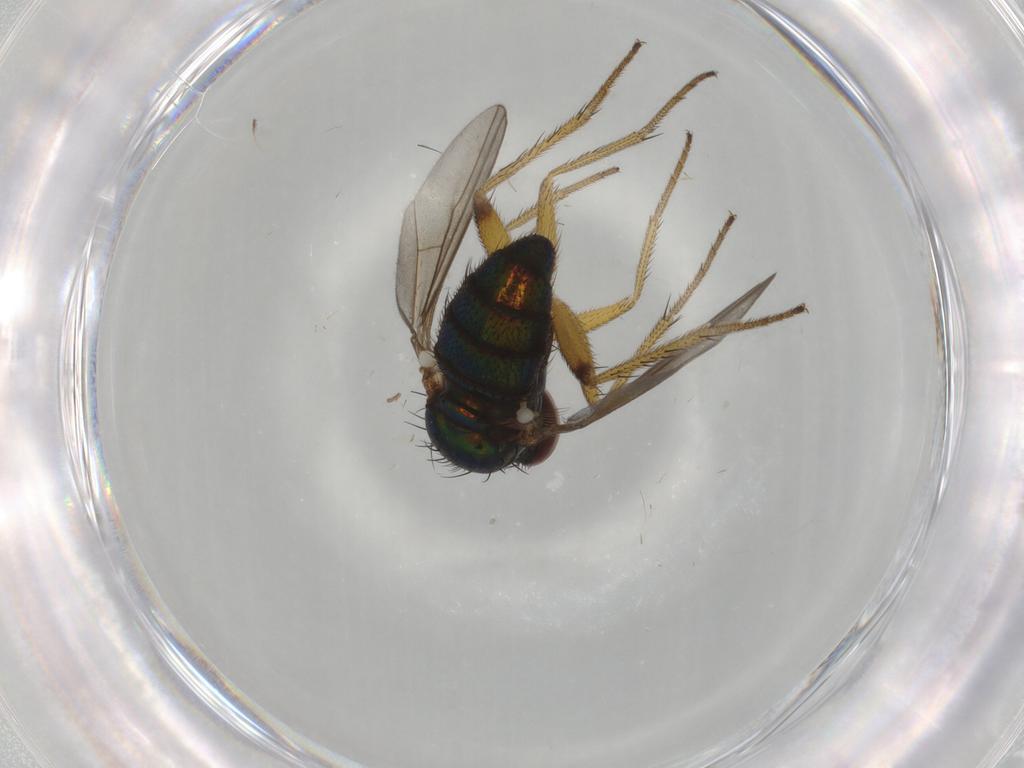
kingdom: Animalia
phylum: Arthropoda
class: Insecta
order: Diptera
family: Dolichopodidae
